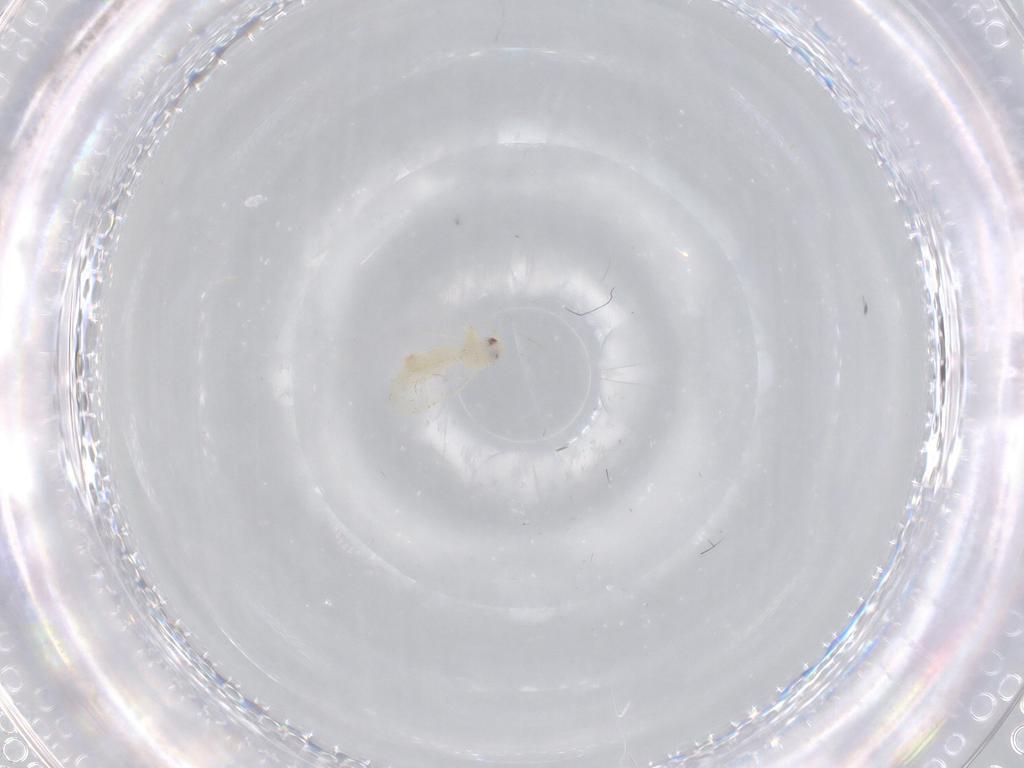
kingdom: Animalia
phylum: Arthropoda
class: Insecta
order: Hemiptera
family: Aleyrodidae
